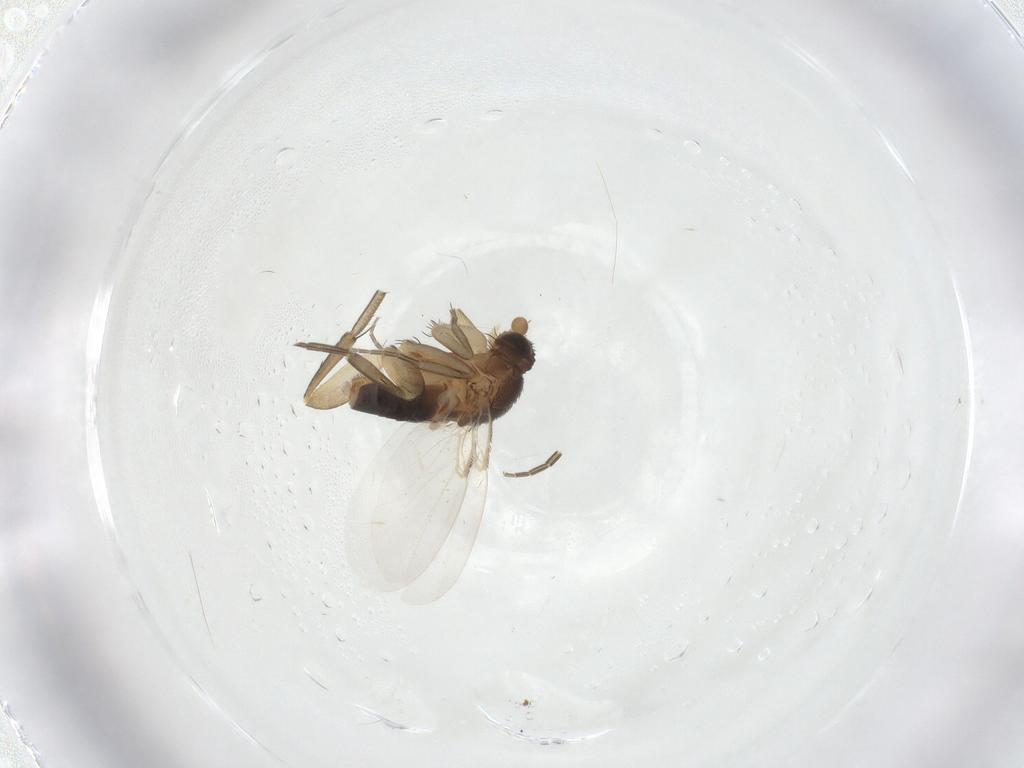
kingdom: Animalia
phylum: Arthropoda
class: Insecta
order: Diptera
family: Phoridae
